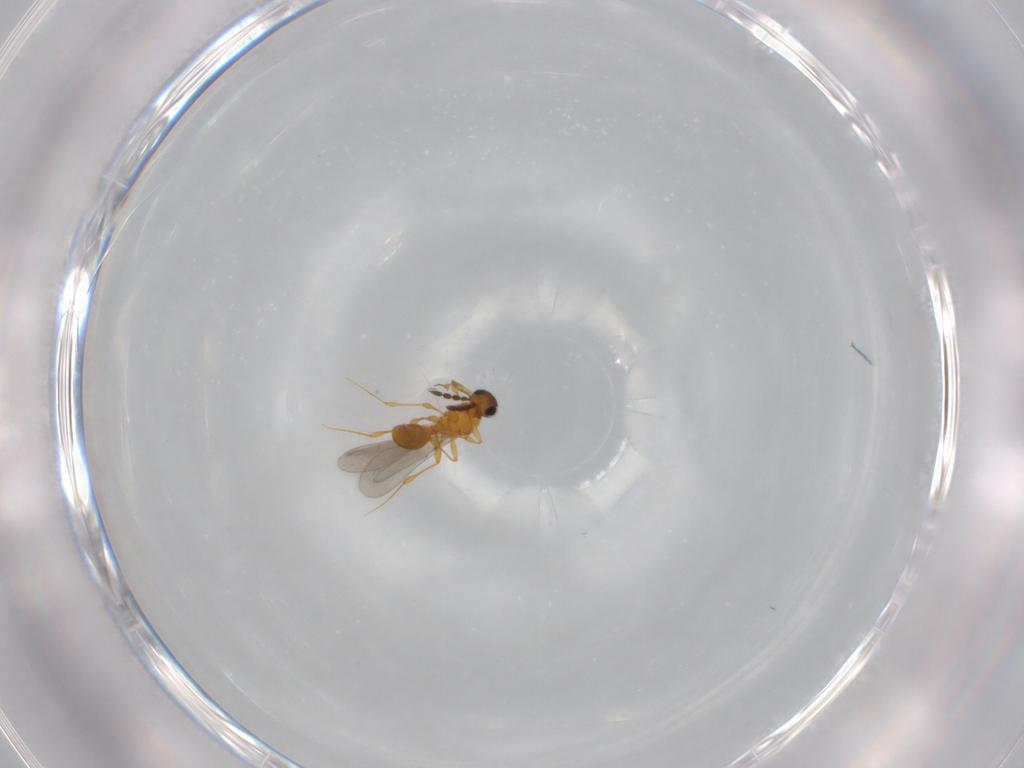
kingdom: Animalia
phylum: Arthropoda
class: Insecta
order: Hymenoptera
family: Platygastridae
